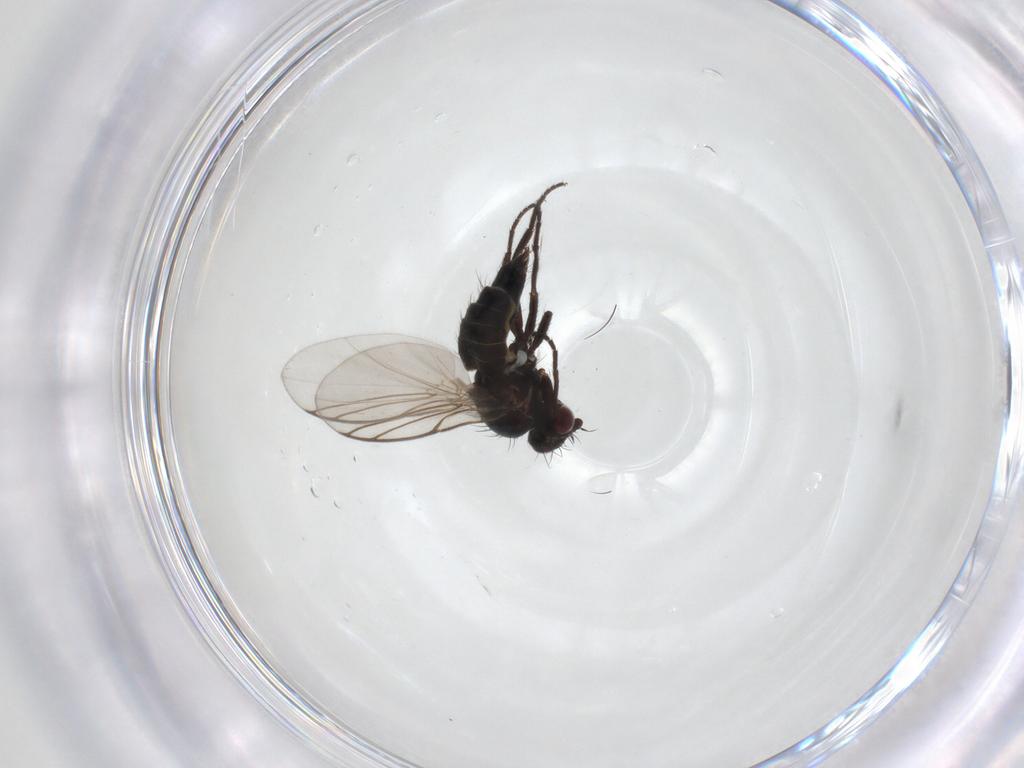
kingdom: Animalia
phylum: Arthropoda
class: Insecta
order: Diptera
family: Agromyzidae
